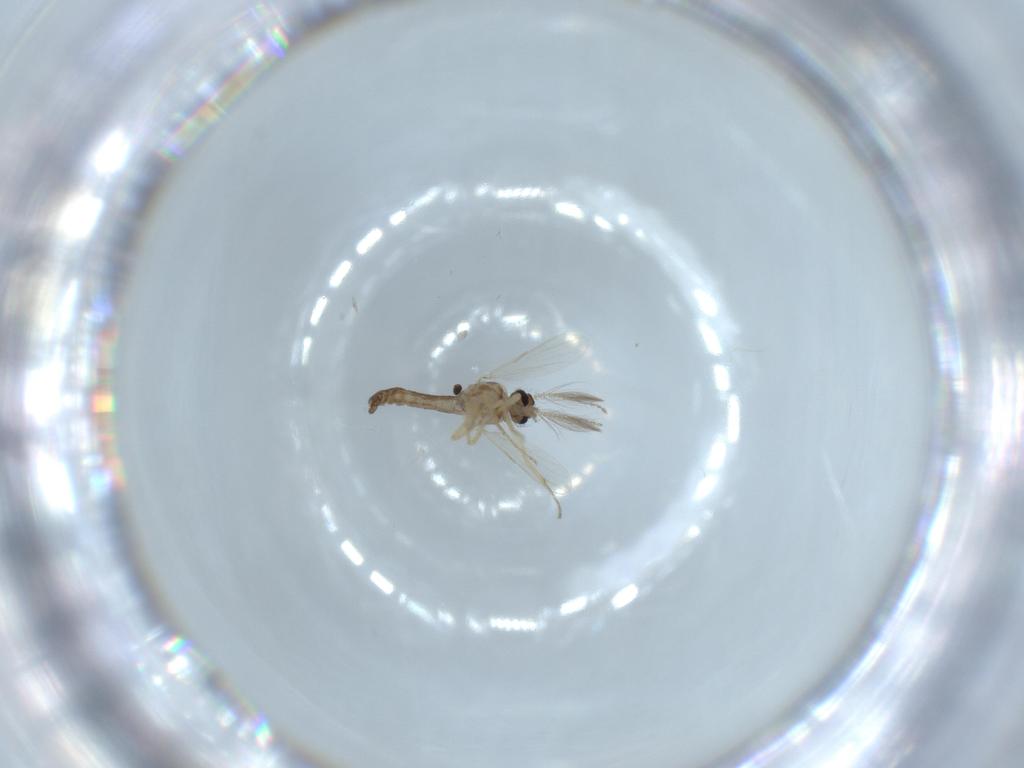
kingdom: Animalia
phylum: Arthropoda
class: Insecta
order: Diptera
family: Ceratopogonidae
